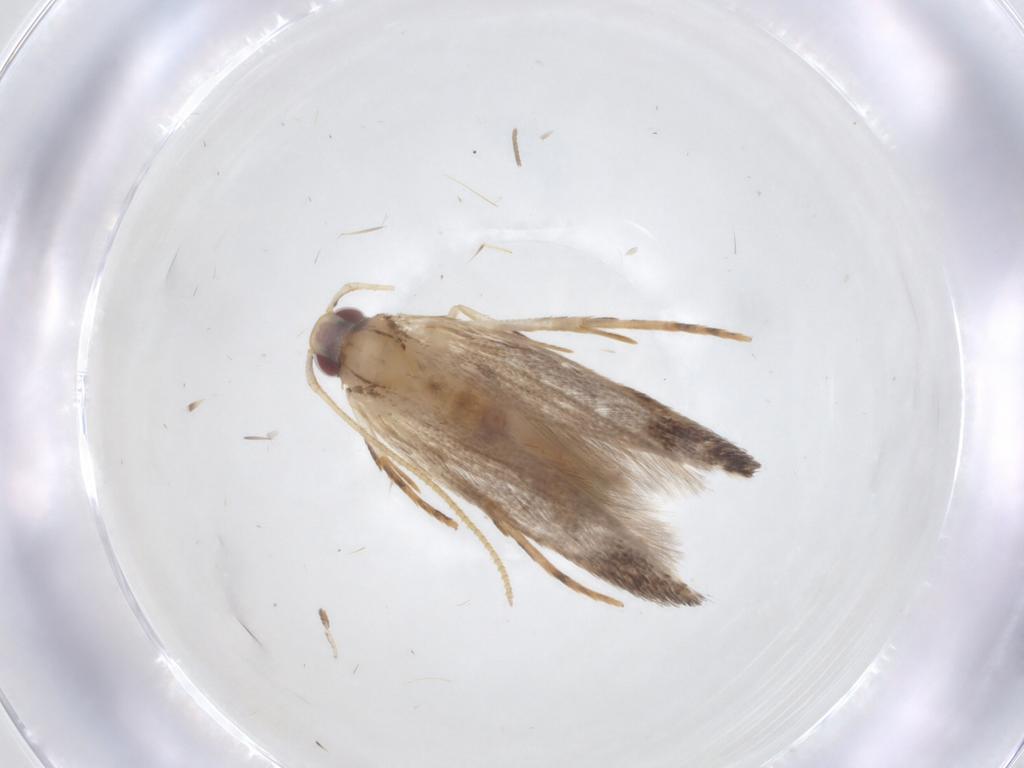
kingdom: Animalia
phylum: Arthropoda
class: Insecta
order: Lepidoptera
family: Cosmopterigidae
